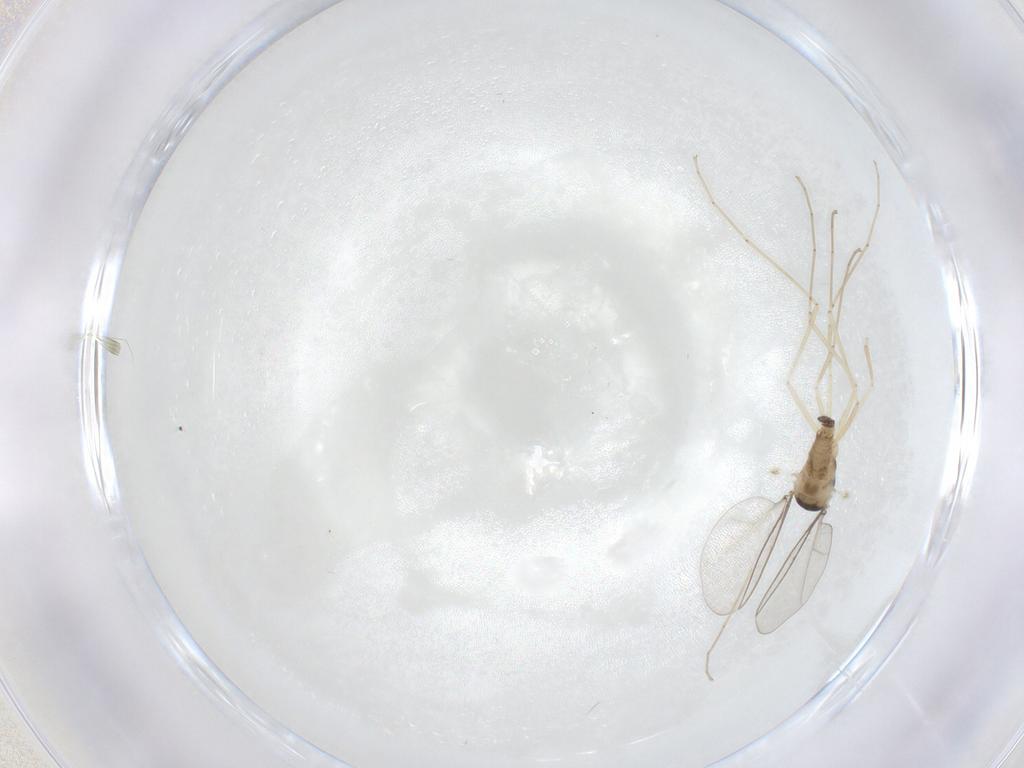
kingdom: Animalia
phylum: Arthropoda
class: Insecta
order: Diptera
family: Cecidomyiidae
